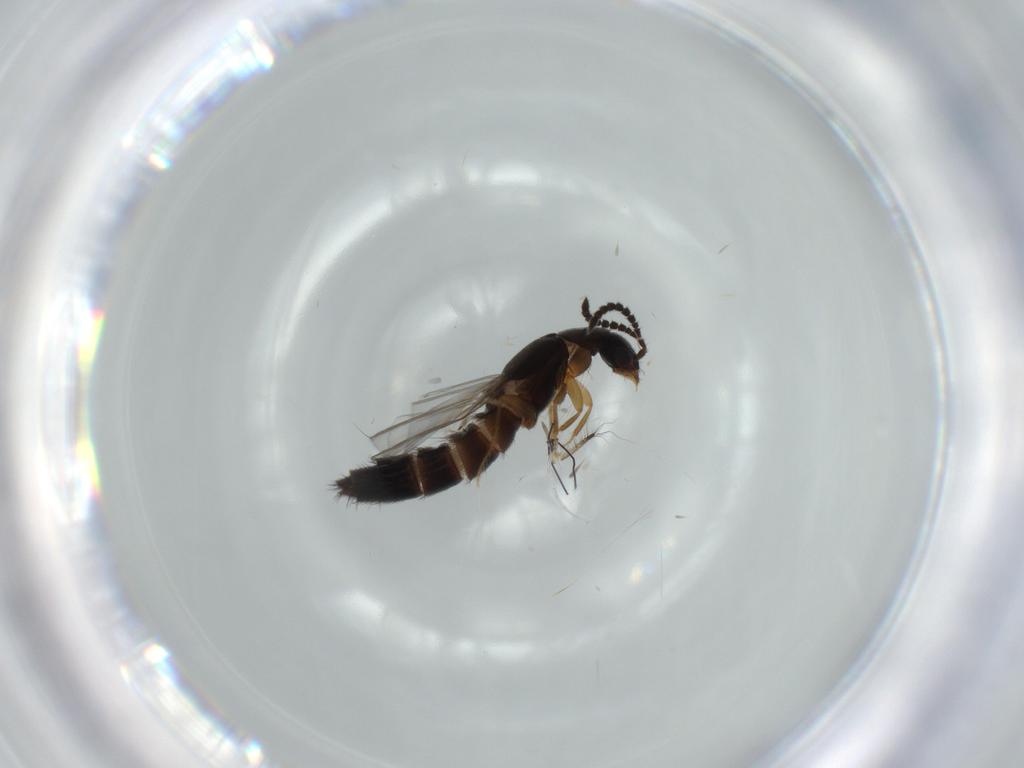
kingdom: Animalia
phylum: Arthropoda
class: Insecta
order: Coleoptera
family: Staphylinidae
